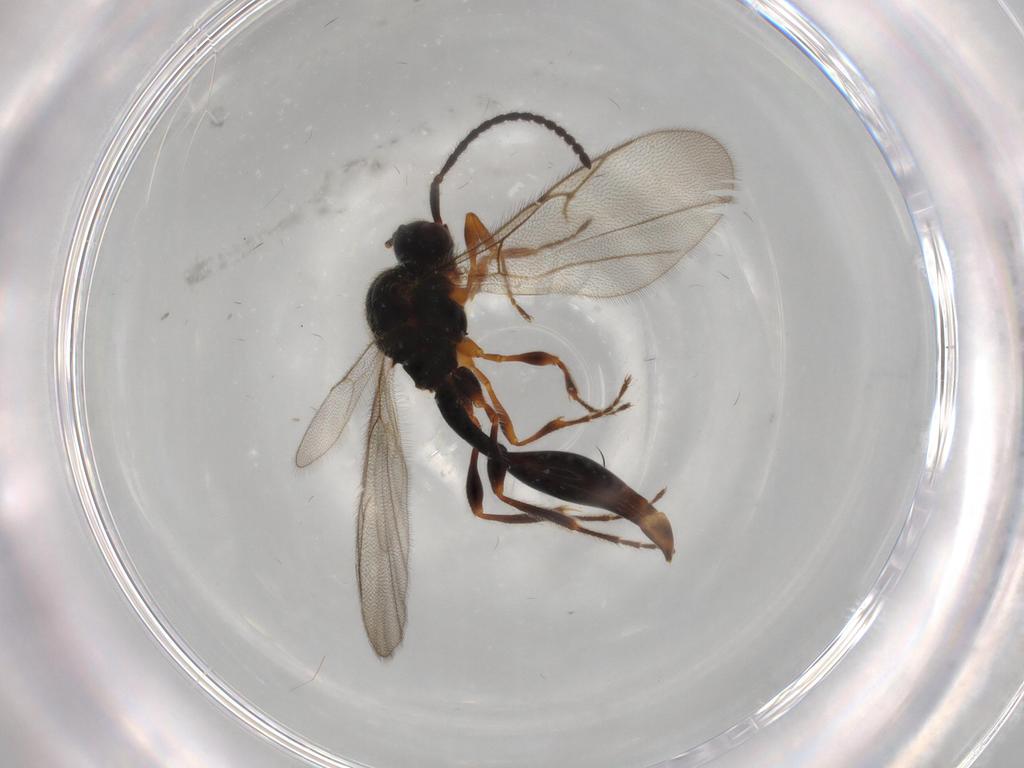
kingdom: Animalia
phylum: Arthropoda
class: Insecta
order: Hymenoptera
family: Diapriidae
